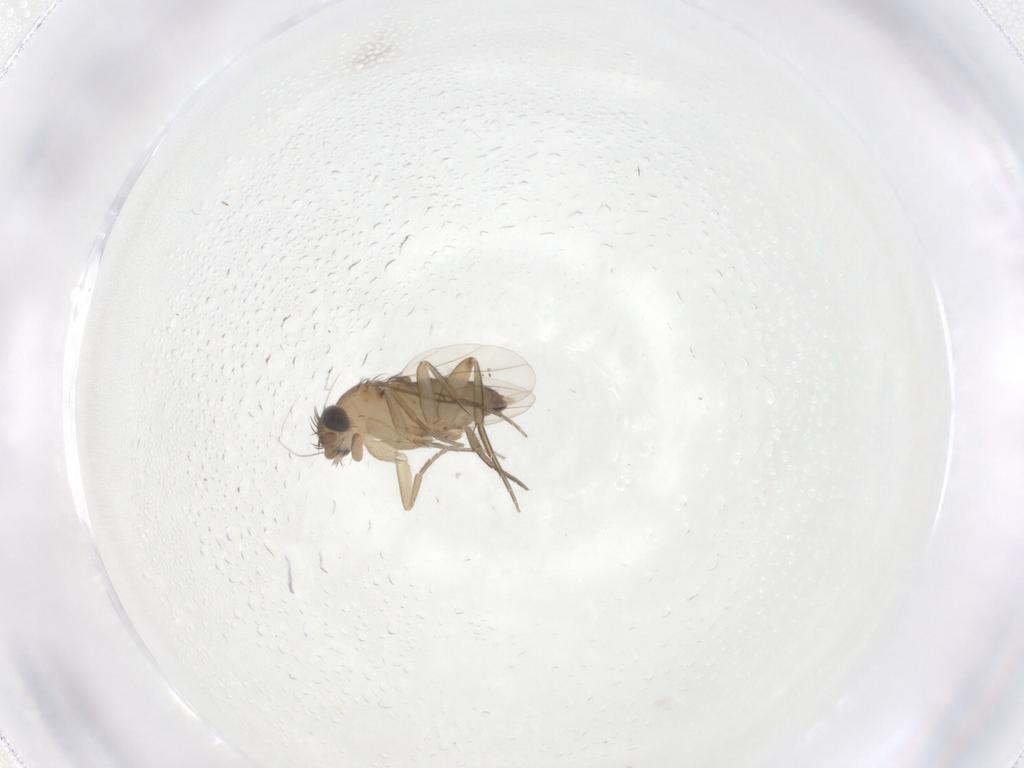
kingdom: Animalia
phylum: Arthropoda
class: Insecta
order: Diptera
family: Phoridae
